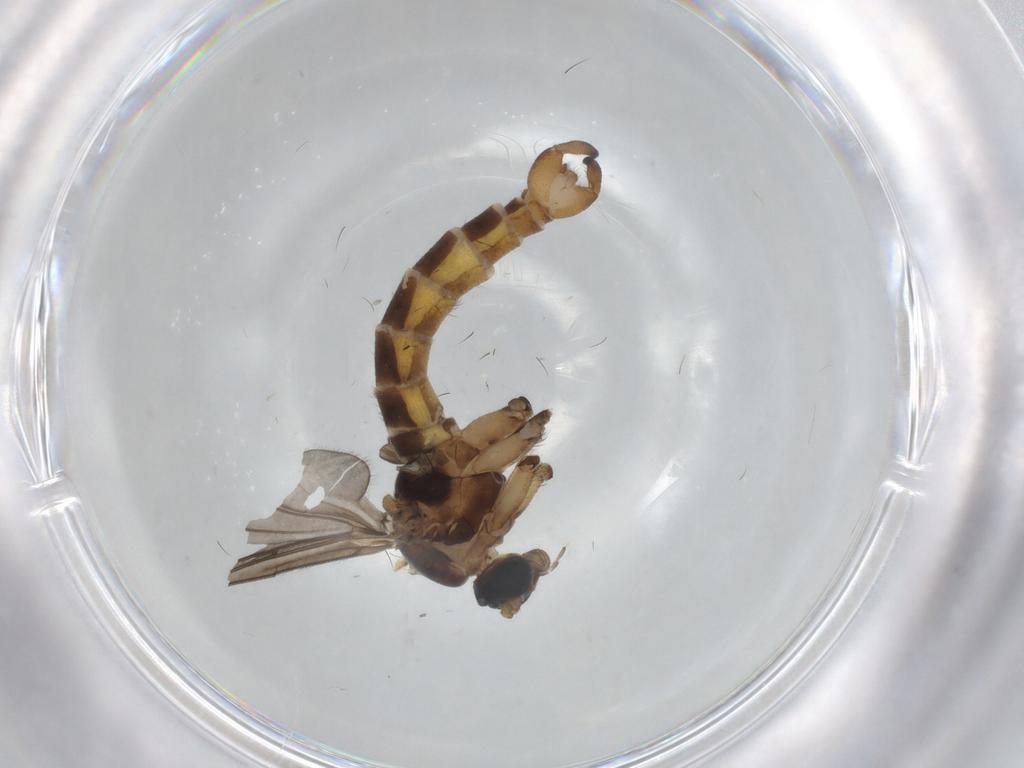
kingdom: Animalia
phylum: Arthropoda
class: Insecta
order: Diptera
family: Sciaridae
